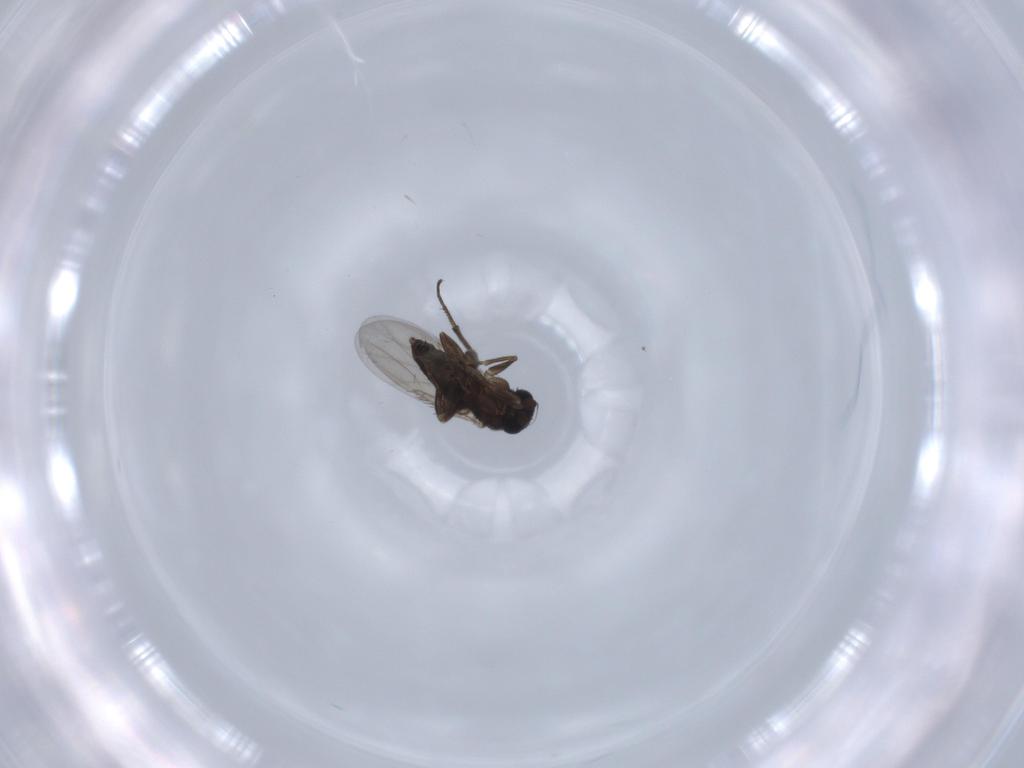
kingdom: Animalia
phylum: Arthropoda
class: Insecta
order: Diptera
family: Phoridae
